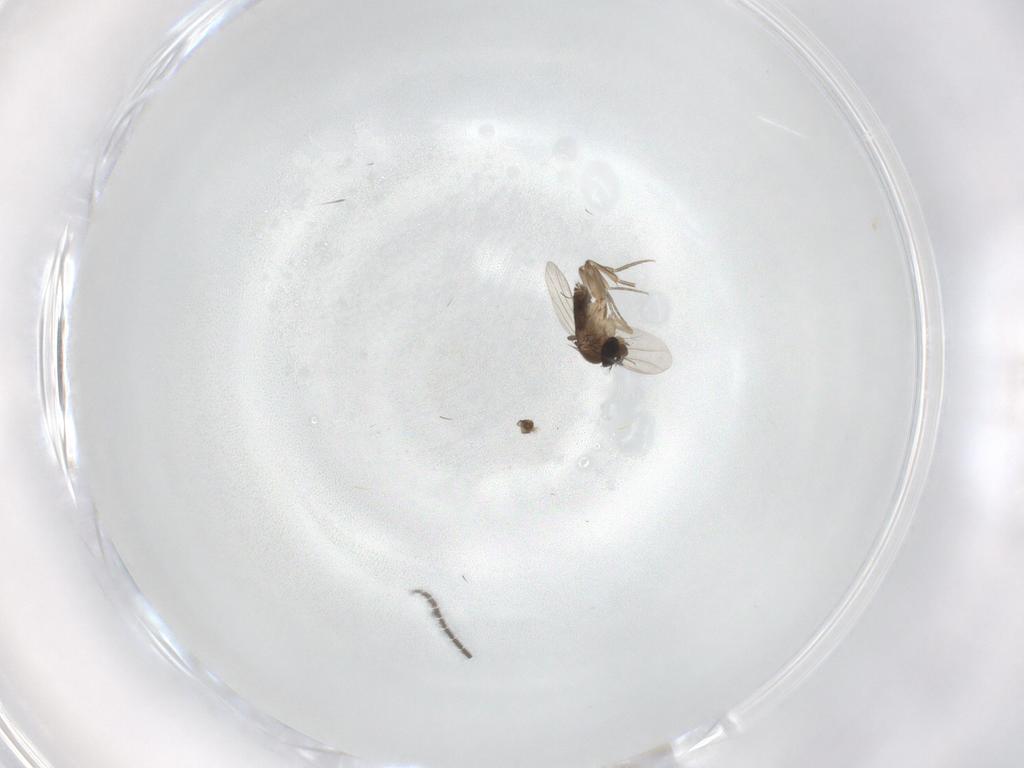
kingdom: Animalia
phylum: Arthropoda
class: Insecta
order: Diptera
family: Phoridae
